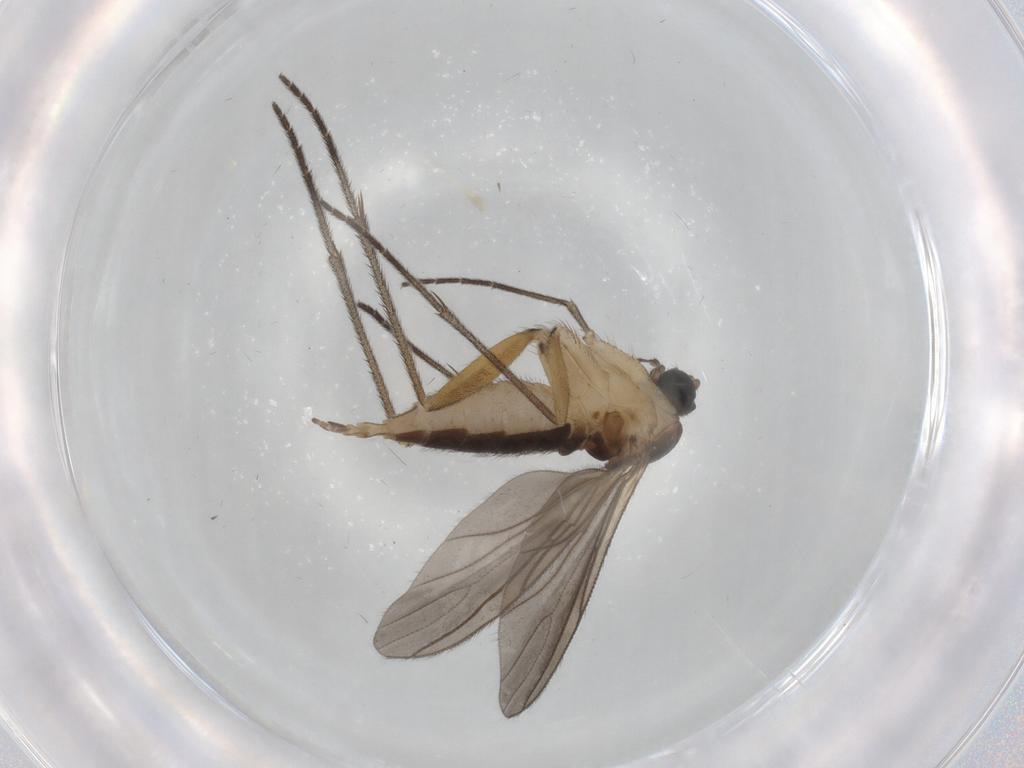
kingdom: Animalia
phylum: Arthropoda
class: Insecta
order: Diptera
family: Sciaridae
